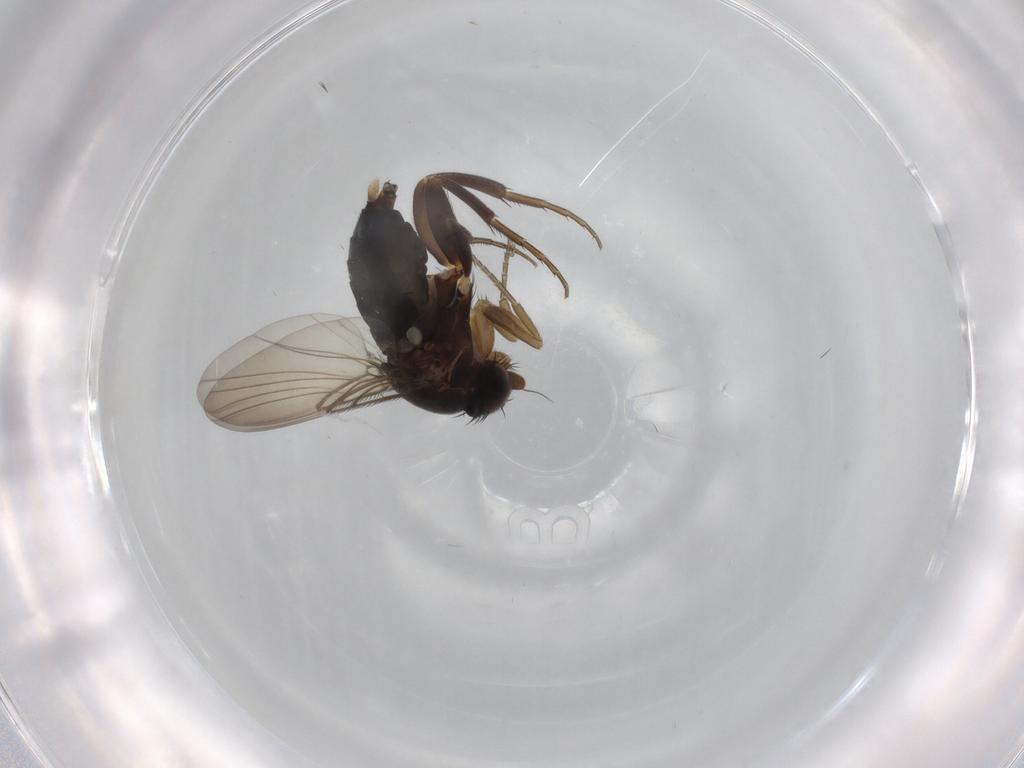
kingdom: Animalia
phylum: Arthropoda
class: Insecta
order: Diptera
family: Phoridae
